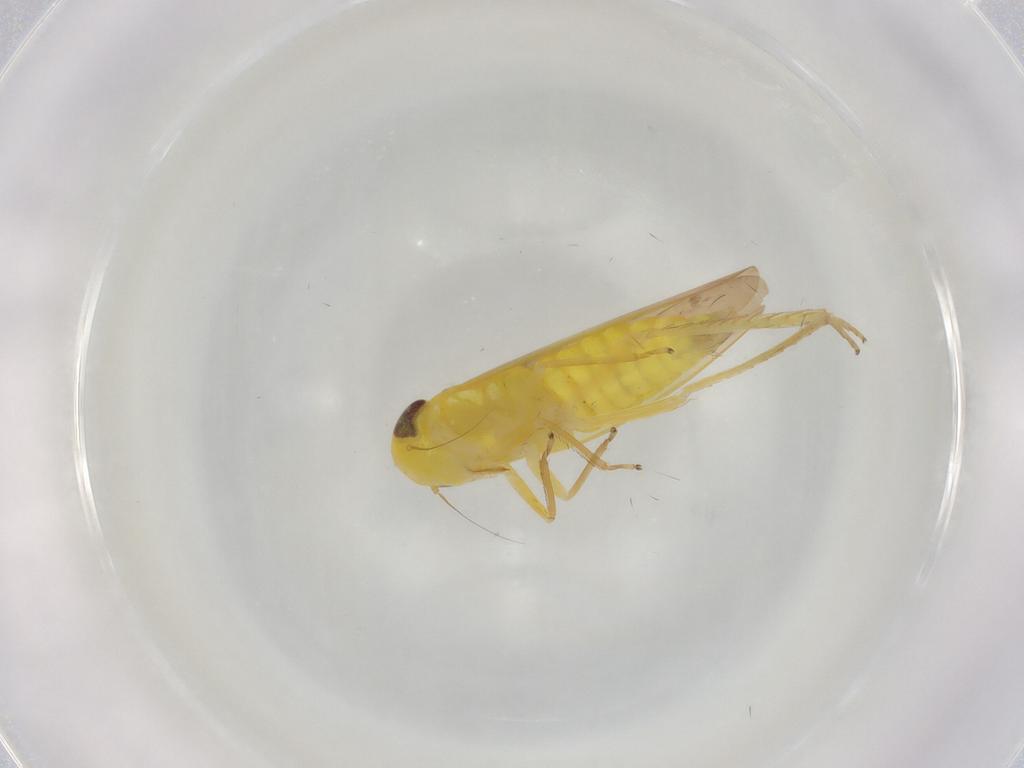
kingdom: Animalia
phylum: Arthropoda
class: Insecta
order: Hemiptera
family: Cicadellidae
